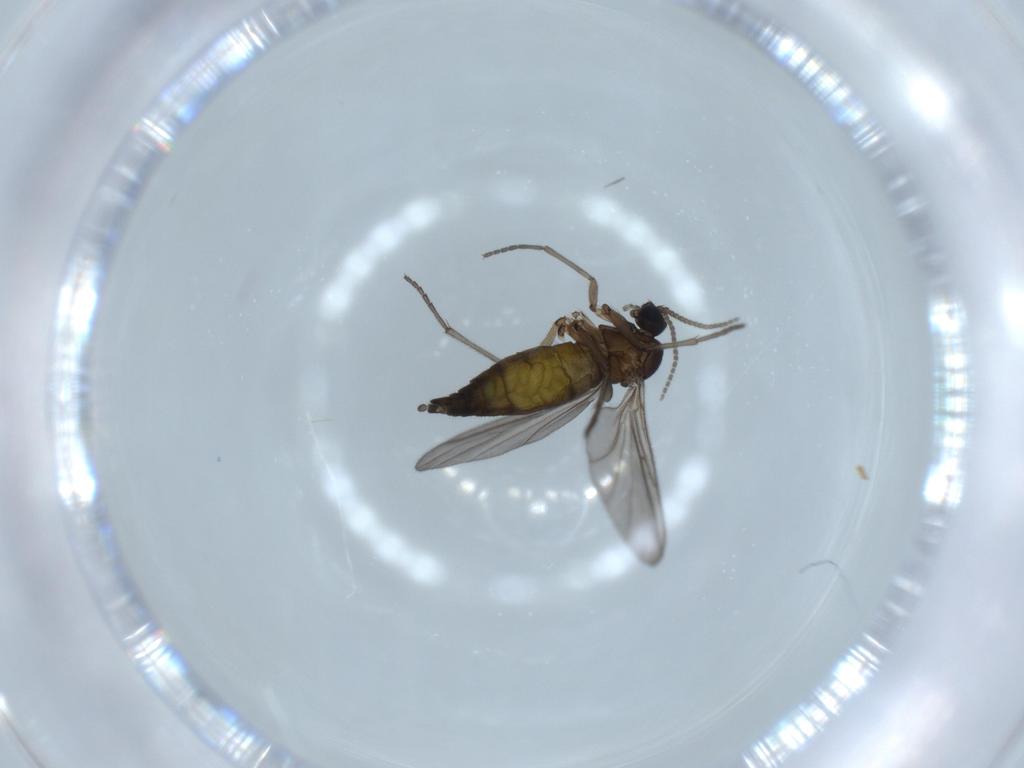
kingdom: Animalia
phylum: Arthropoda
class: Insecta
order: Diptera
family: Sciaridae
